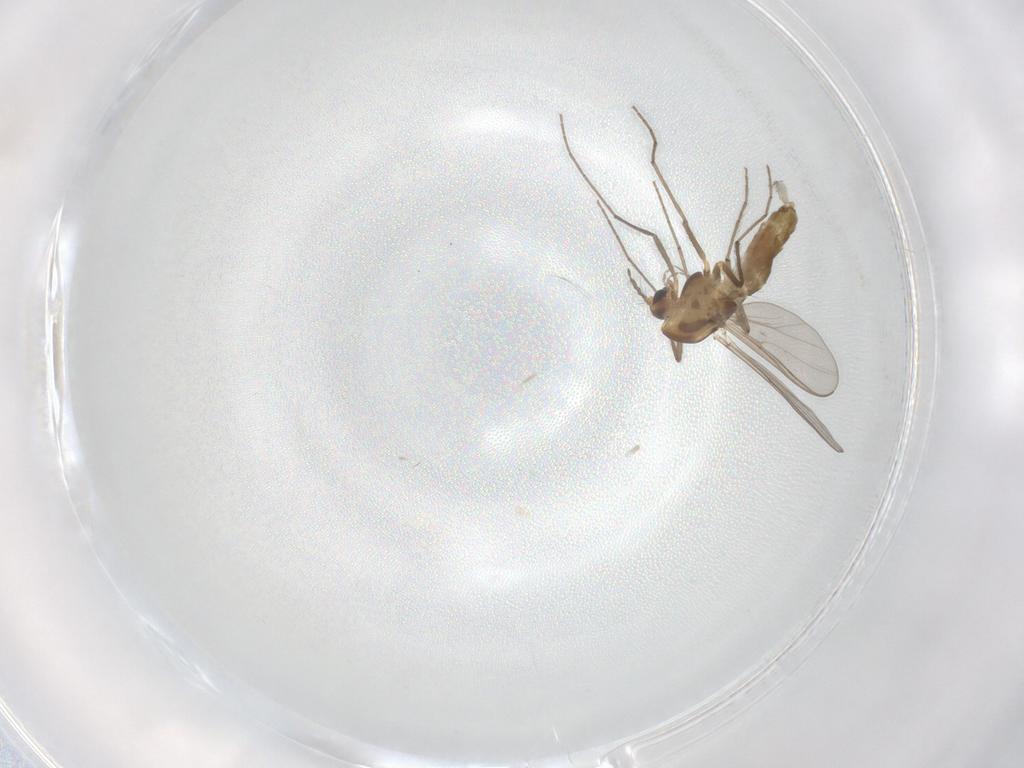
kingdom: Animalia
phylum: Arthropoda
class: Insecta
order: Diptera
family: Chironomidae
